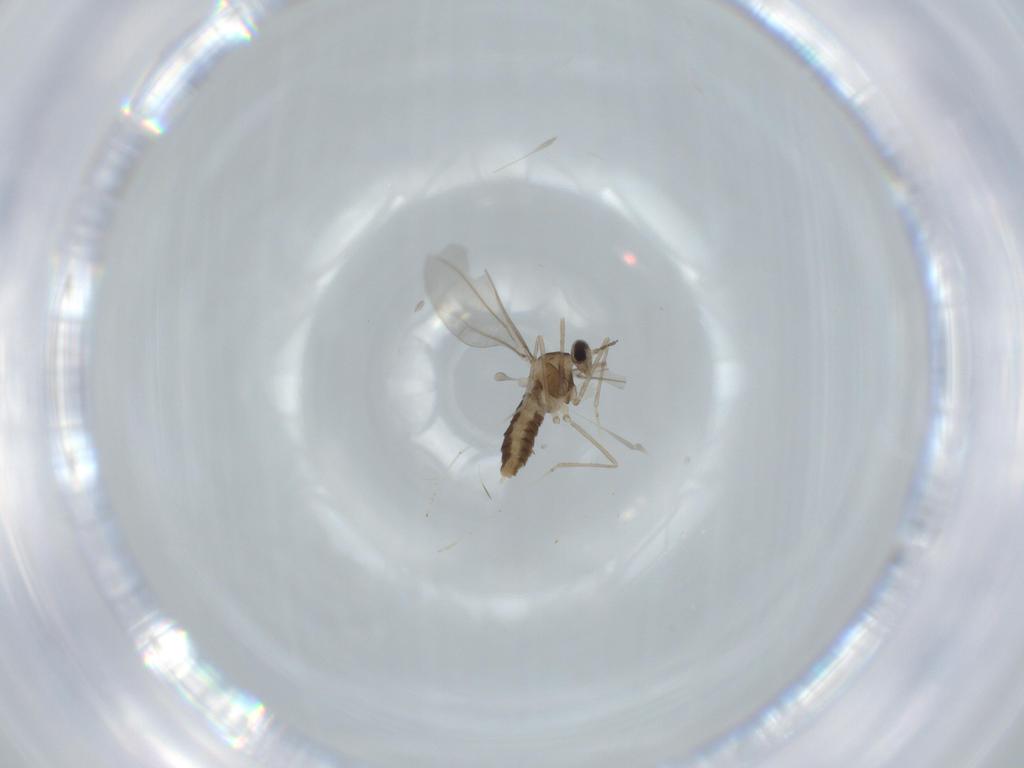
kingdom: Animalia
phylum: Arthropoda
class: Insecta
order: Diptera
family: Cecidomyiidae
